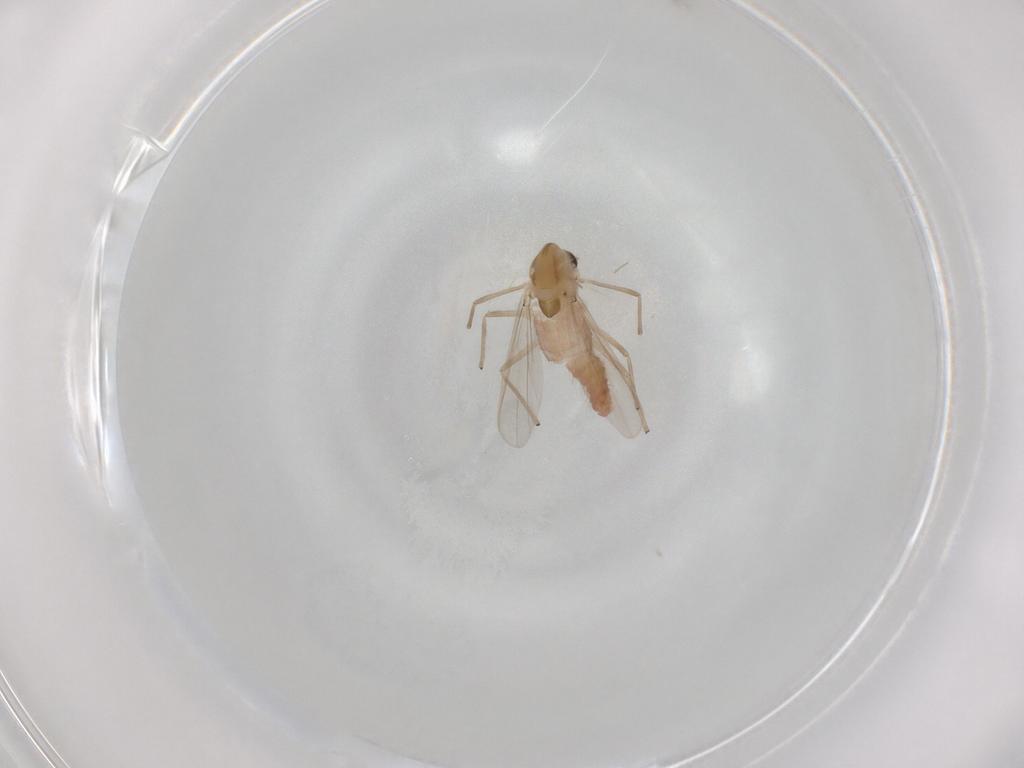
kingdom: Animalia
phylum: Arthropoda
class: Insecta
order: Diptera
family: Chironomidae
